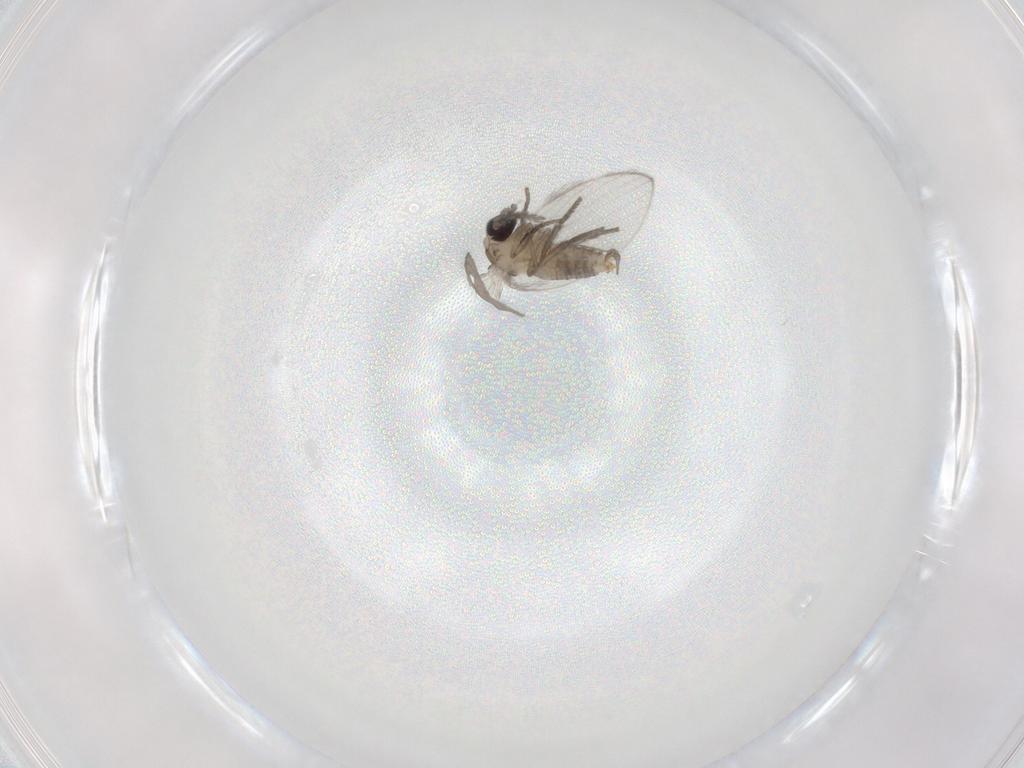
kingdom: Animalia
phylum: Arthropoda
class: Insecta
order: Diptera
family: Psychodidae
